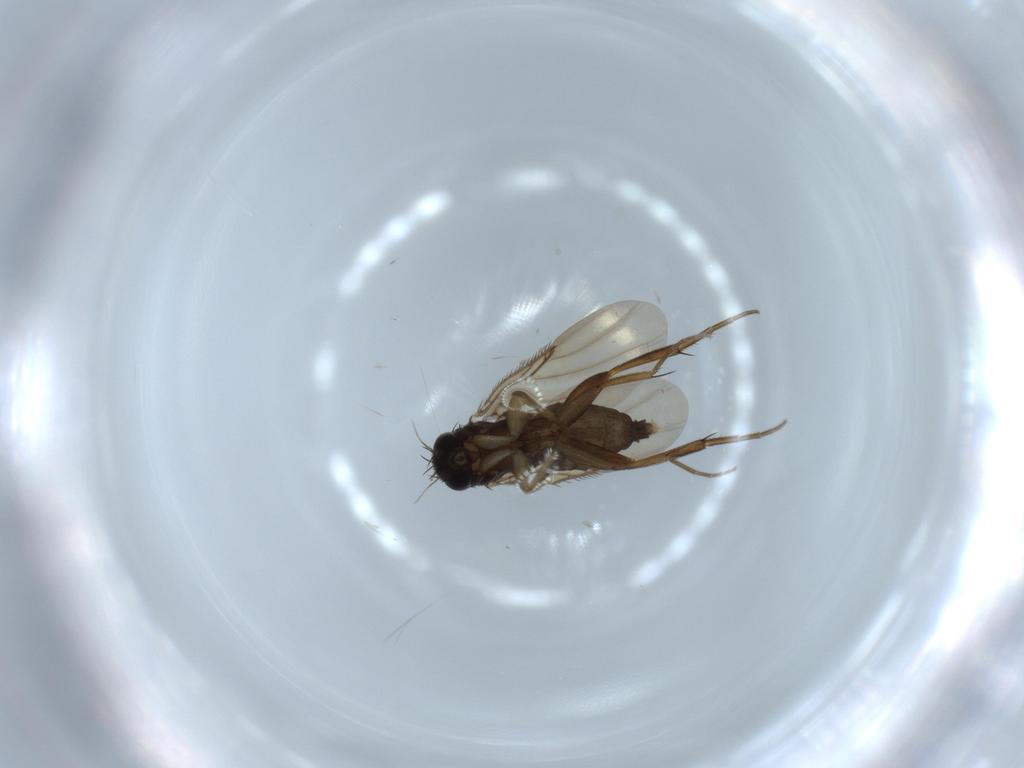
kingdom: Animalia
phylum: Arthropoda
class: Insecta
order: Diptera
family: Phoridae
